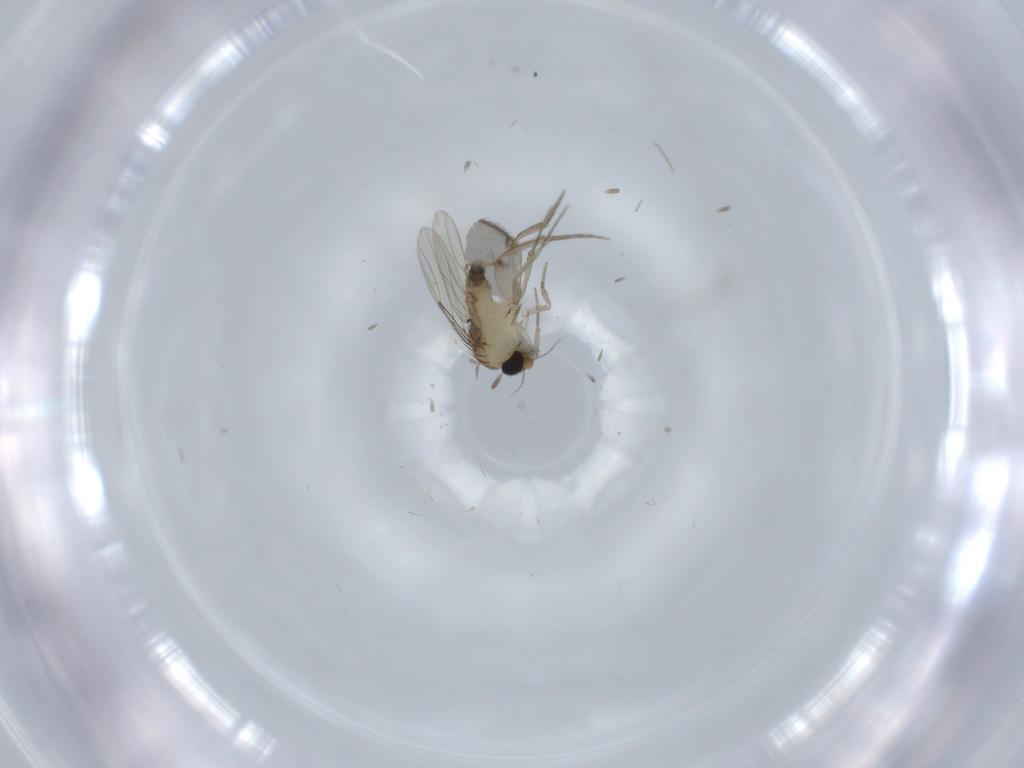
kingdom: Animalia
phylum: Arthropoda
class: Insecta
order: Diptera
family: Phoridae
